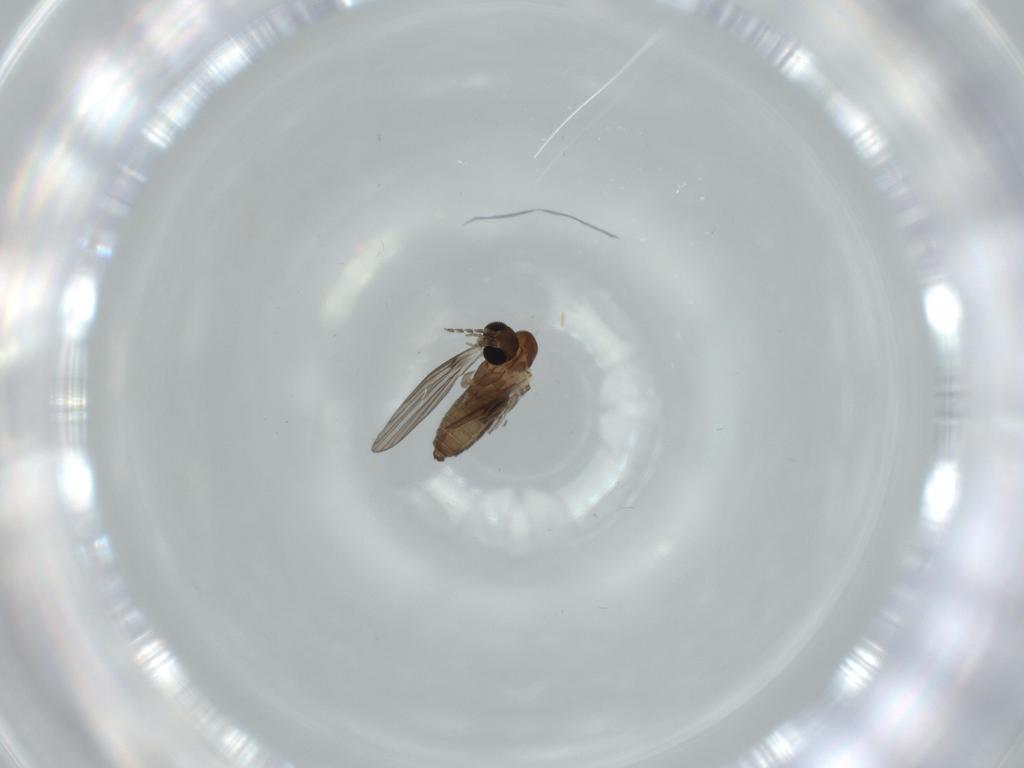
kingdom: Animalia
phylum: Arthropoda
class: Insecta
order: Diptera
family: Psychodidae
